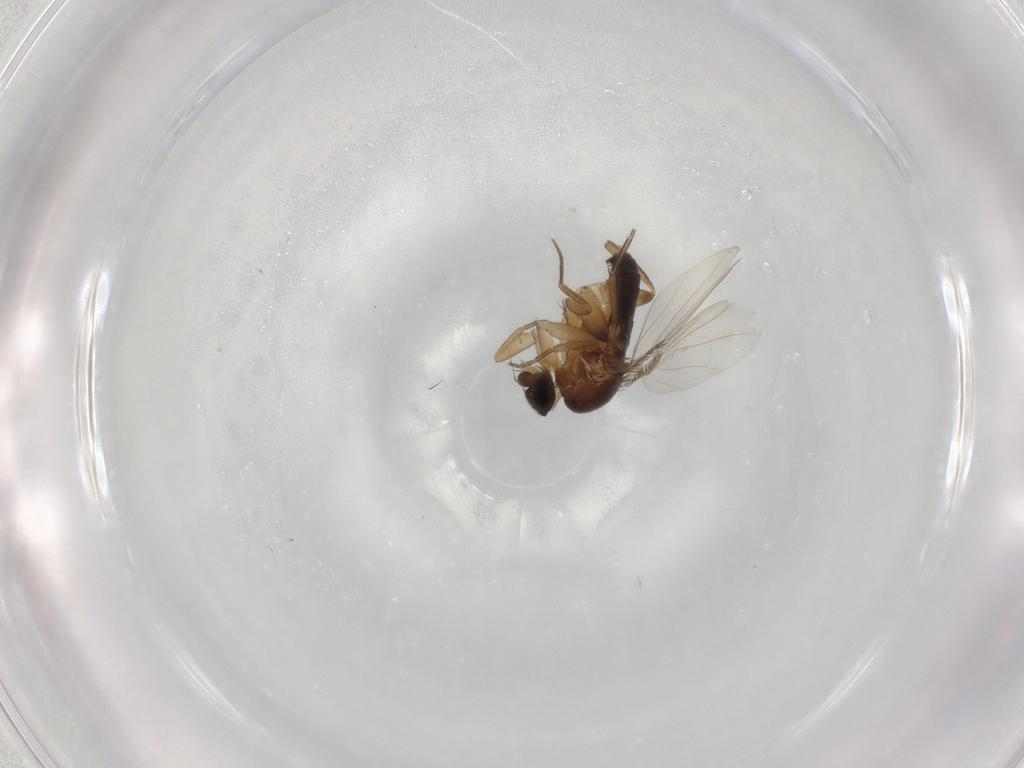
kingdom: Animalia
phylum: Arthropoda
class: Insecta
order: Diptera
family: Phoridae
